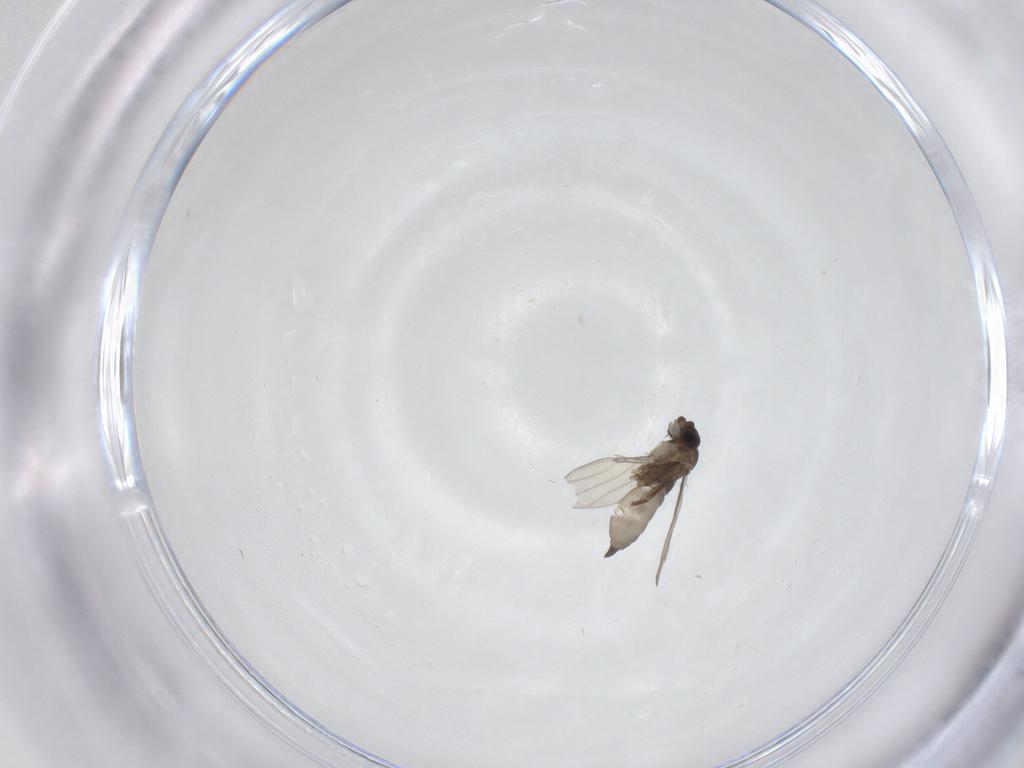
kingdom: Animalia
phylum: Arthropoda
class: Insecta
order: Diptera
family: Phoridae
